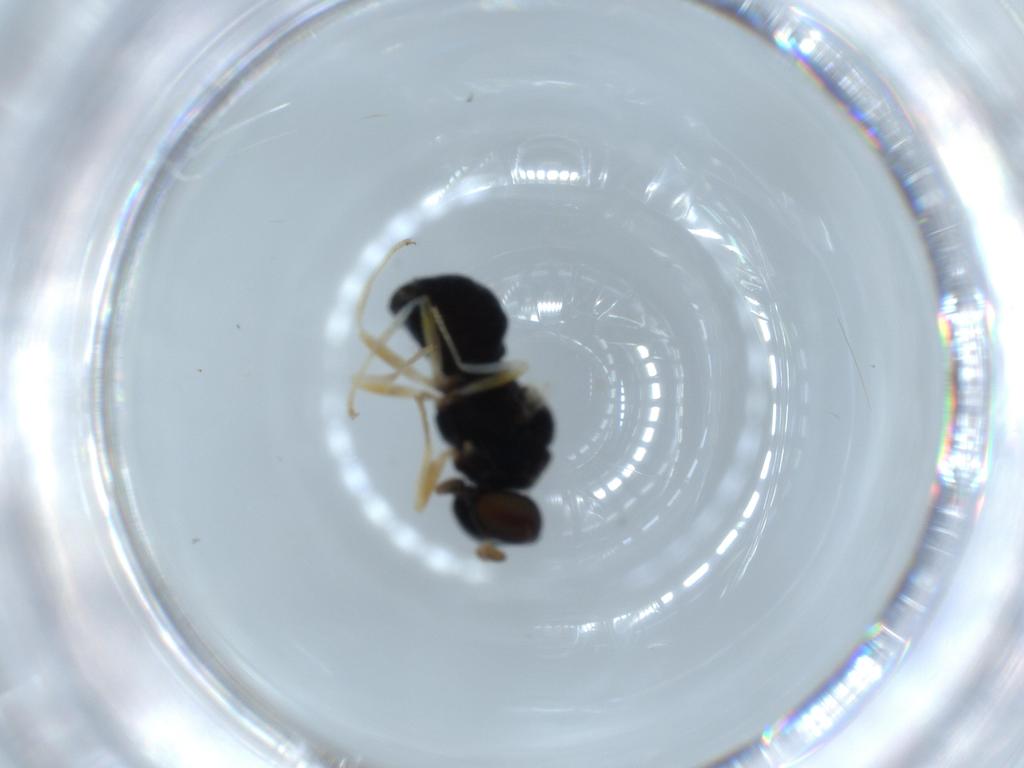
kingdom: Animalia
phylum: Arthropoda
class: Insecta
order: Diptera
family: Stratiomyidae
